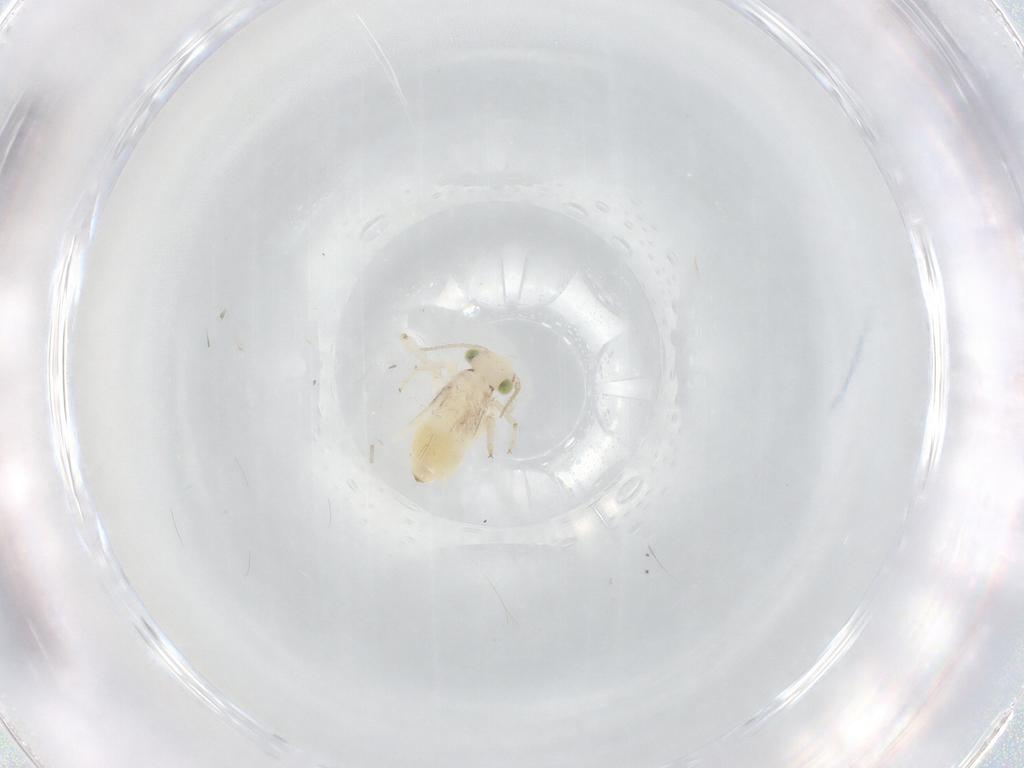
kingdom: Animalia
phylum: Arthropoda
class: Insecta
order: Psocodea
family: Lepidopsocidae
